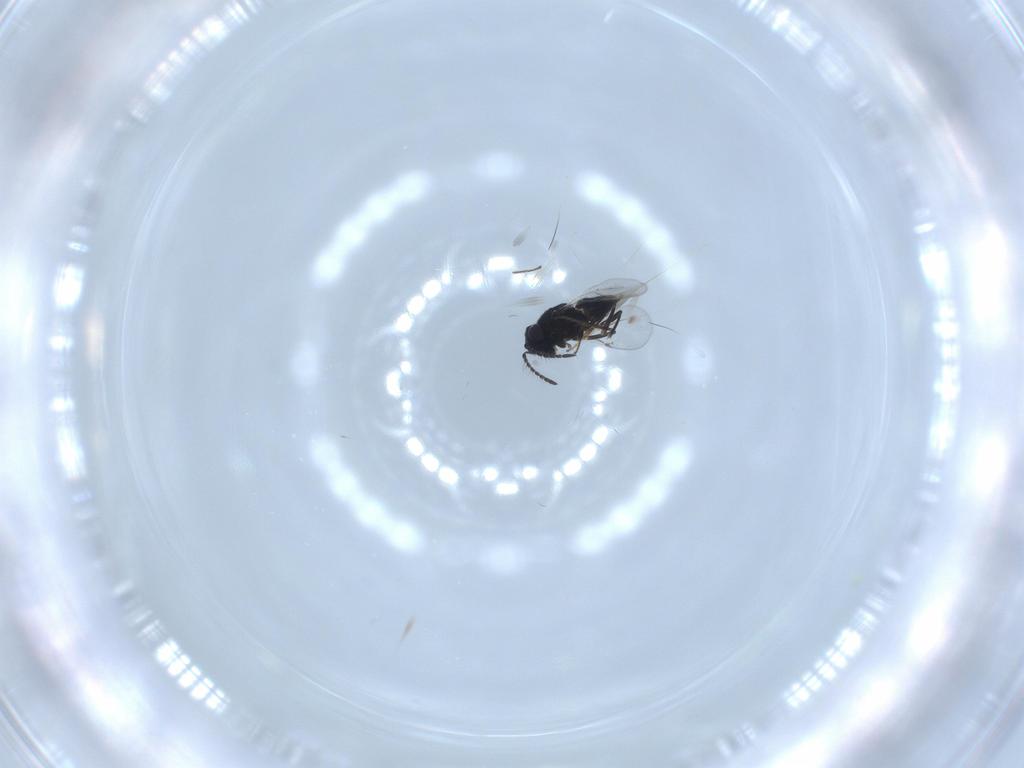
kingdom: Animalia
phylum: Arthropoda
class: Insecta
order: Hymenoptera
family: Encyrtidae
